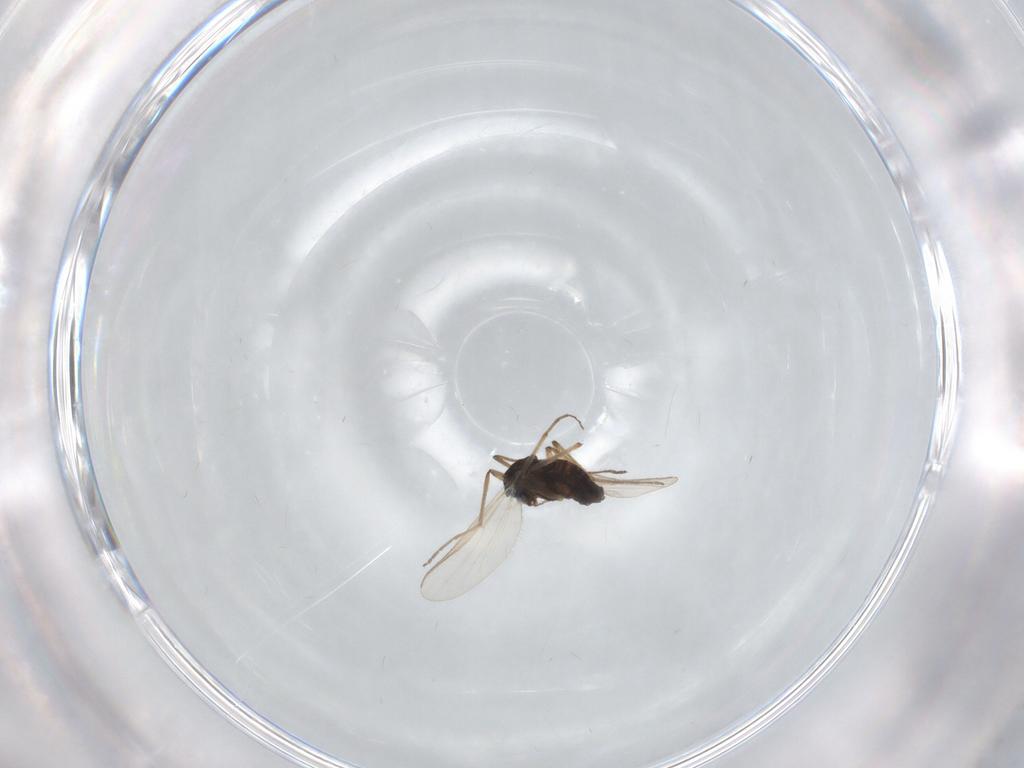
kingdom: Animalia
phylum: Arthropoda
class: Insecta
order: Diptera
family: Chironomidae
